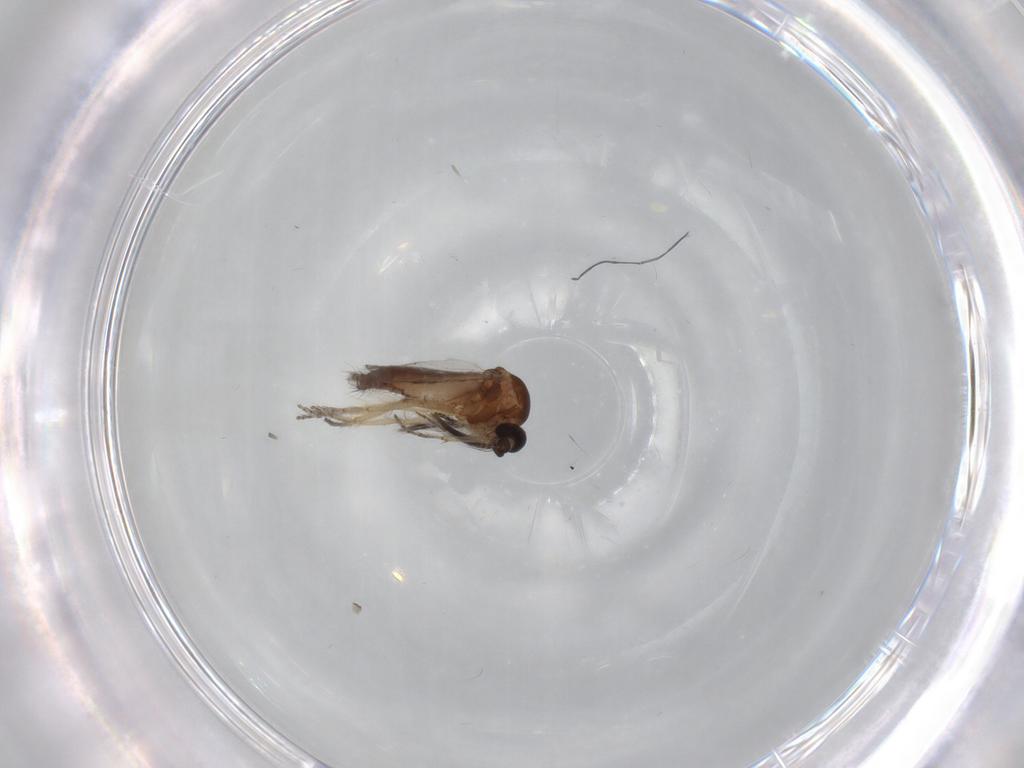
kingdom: Animalia
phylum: Arthropoda
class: Insecta
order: Diptera
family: Ceratopogonidae
